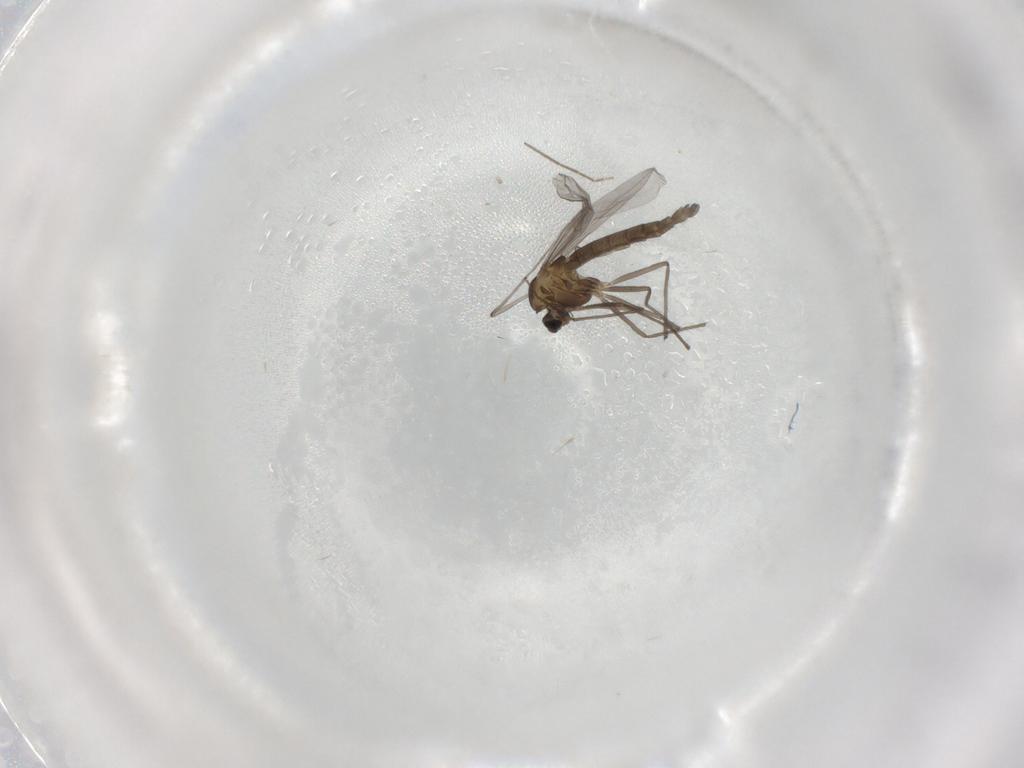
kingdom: Animalia
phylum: Arthropoda
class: Insecta
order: Diptera
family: Chironomidae
